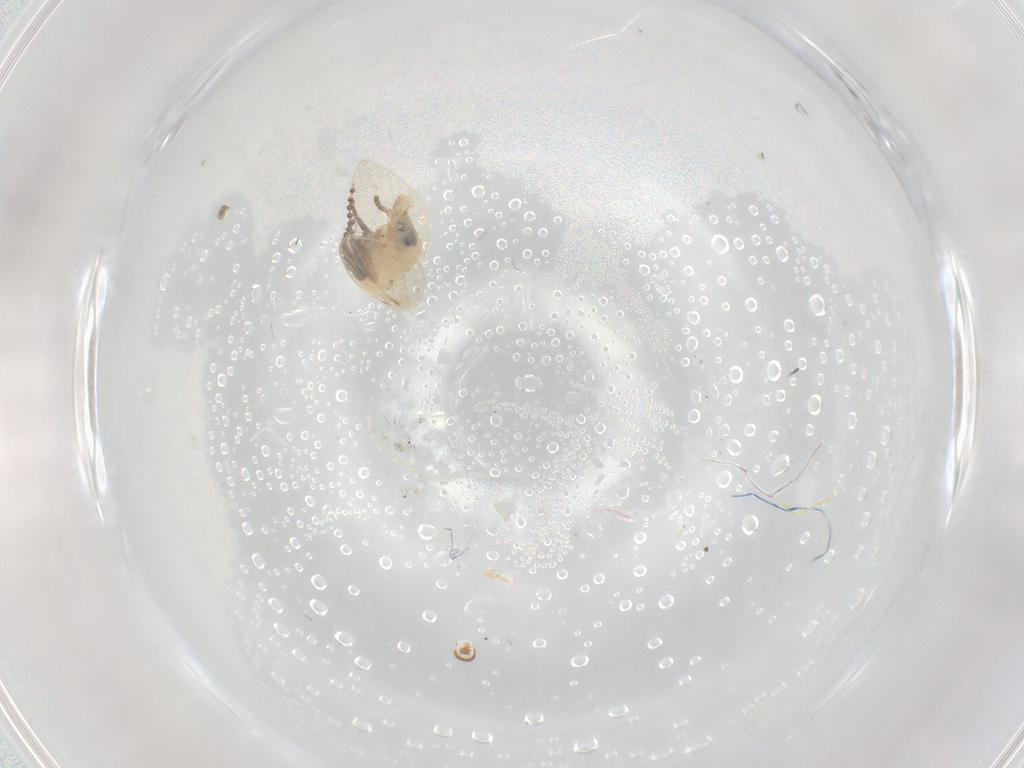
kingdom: Animalia
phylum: Arthropoda
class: Insecta
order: Diptera
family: Psychodidae
